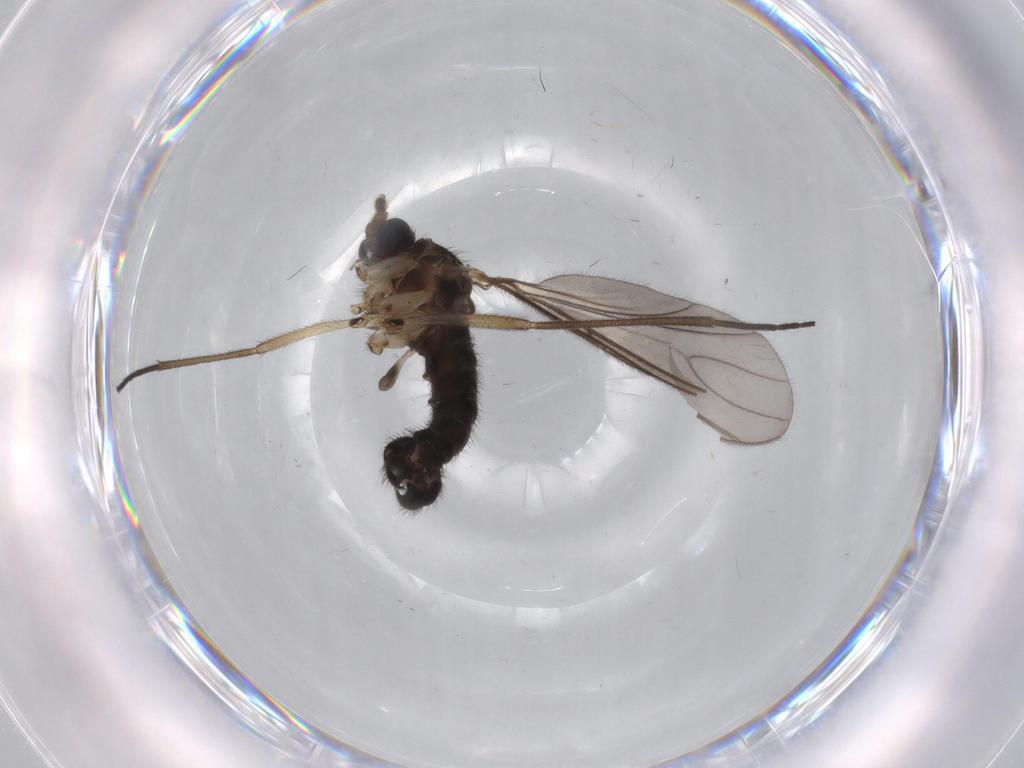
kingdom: Animalia
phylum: Arthropoda
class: Insecta
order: Diptera
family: Sciaridae
